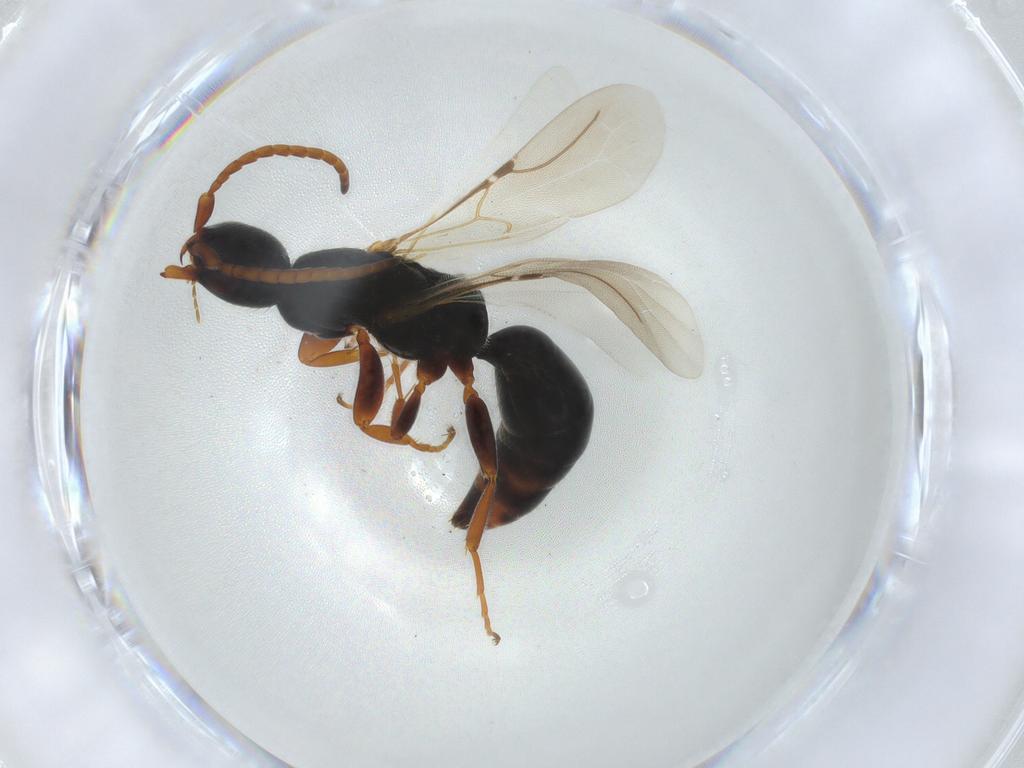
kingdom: Animalia
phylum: Arthropoda
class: Insecta
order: Hymenoptera
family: Bethylidae
